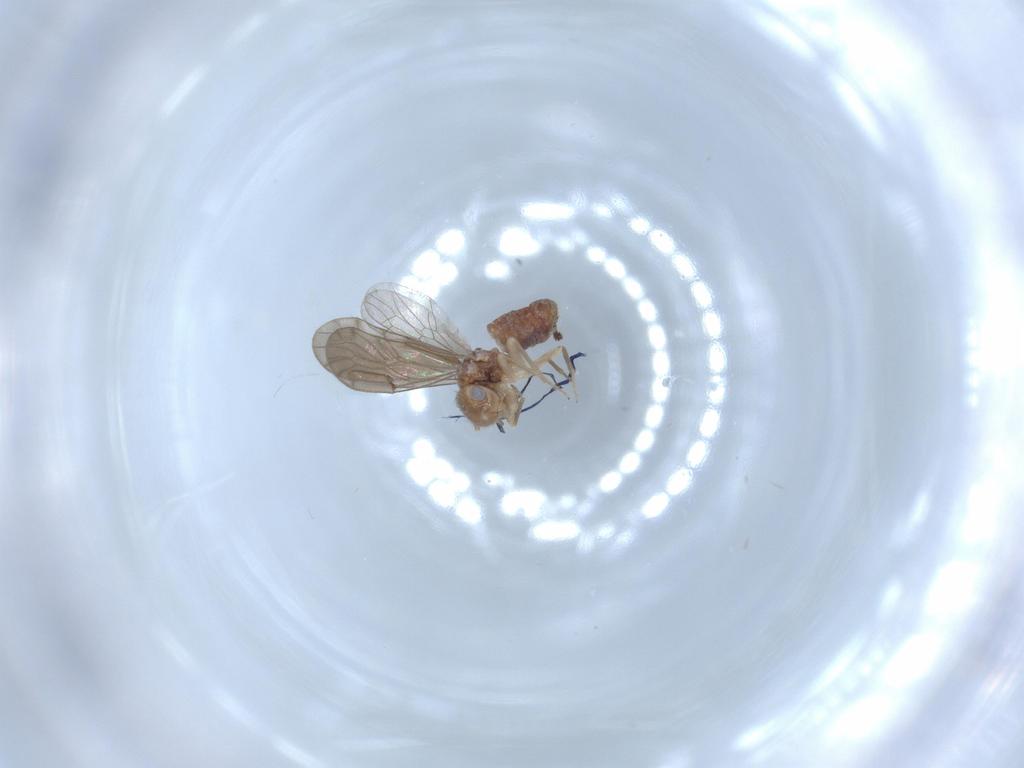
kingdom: Animalia
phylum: Arthropoda
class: Insecta
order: Psocodea
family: Ectopsocidae
